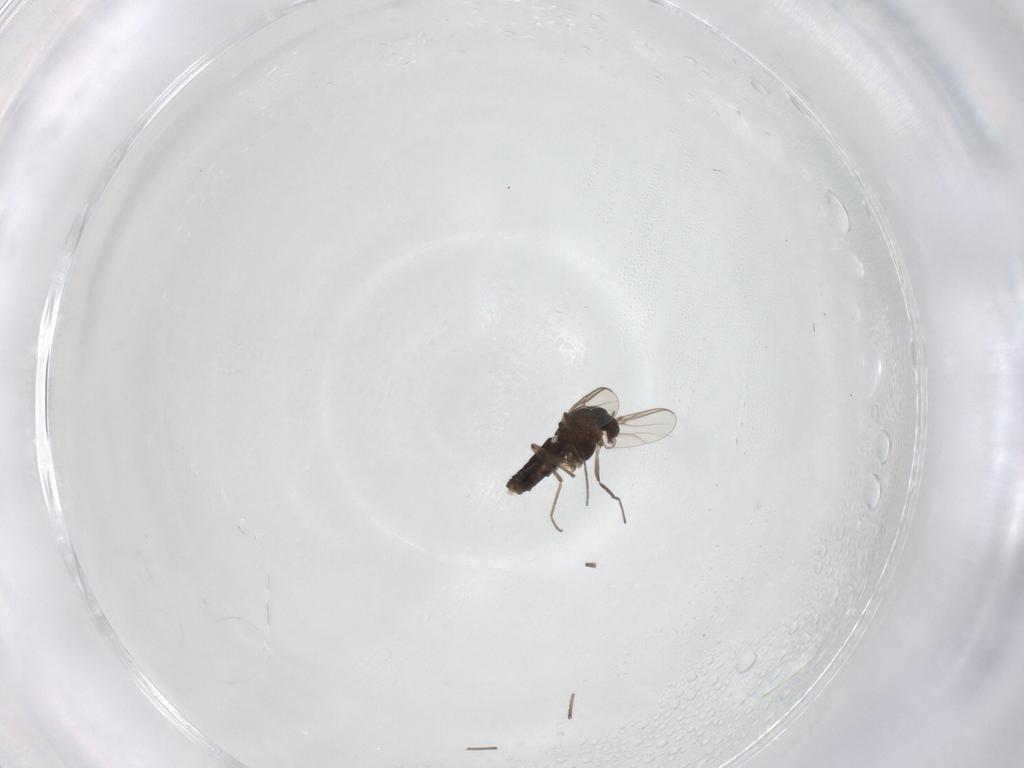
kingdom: Animalia
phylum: Arthropoda
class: Insecta
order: Diptera
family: Chironomidae
